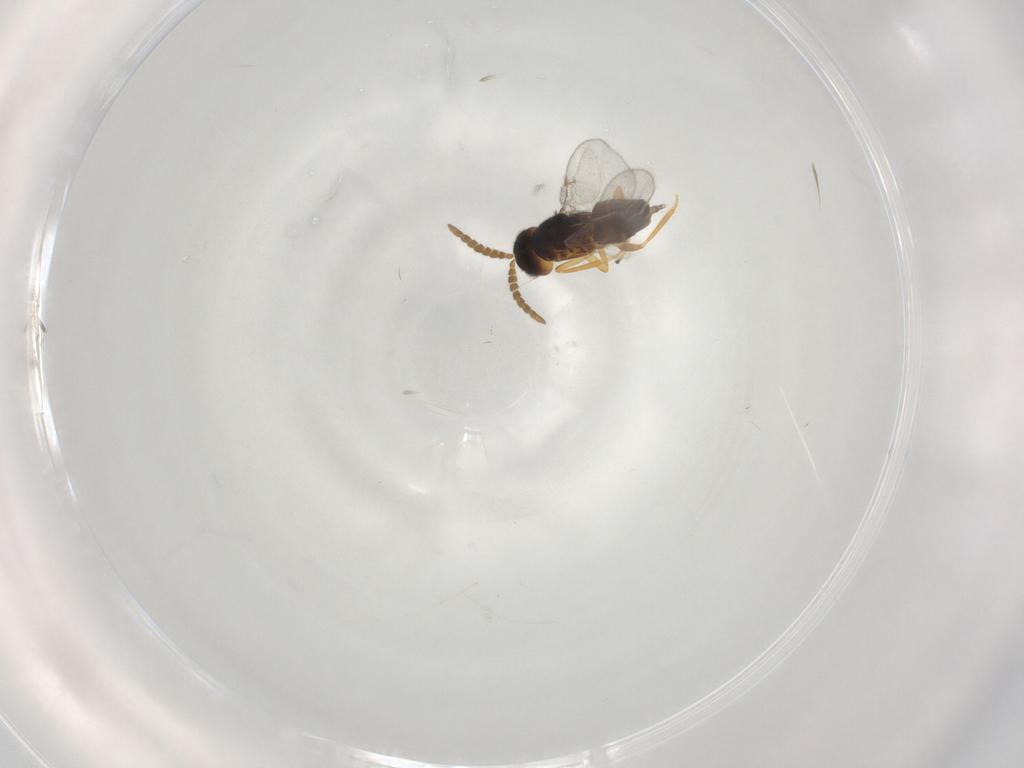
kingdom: Animalia
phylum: Arthropoda
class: Insecta
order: Hymenoptera
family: Encyrtidae
